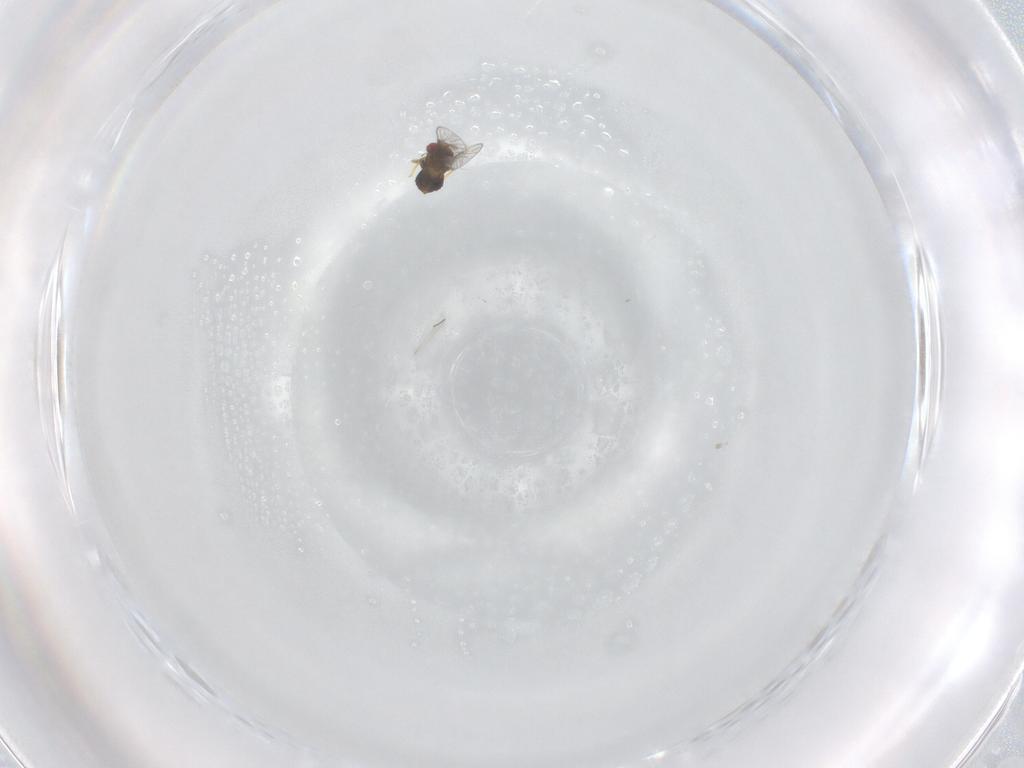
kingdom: Animalia
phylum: Arthropoda
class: Insecta
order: Hymenoptera
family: Trichogrammatidae
